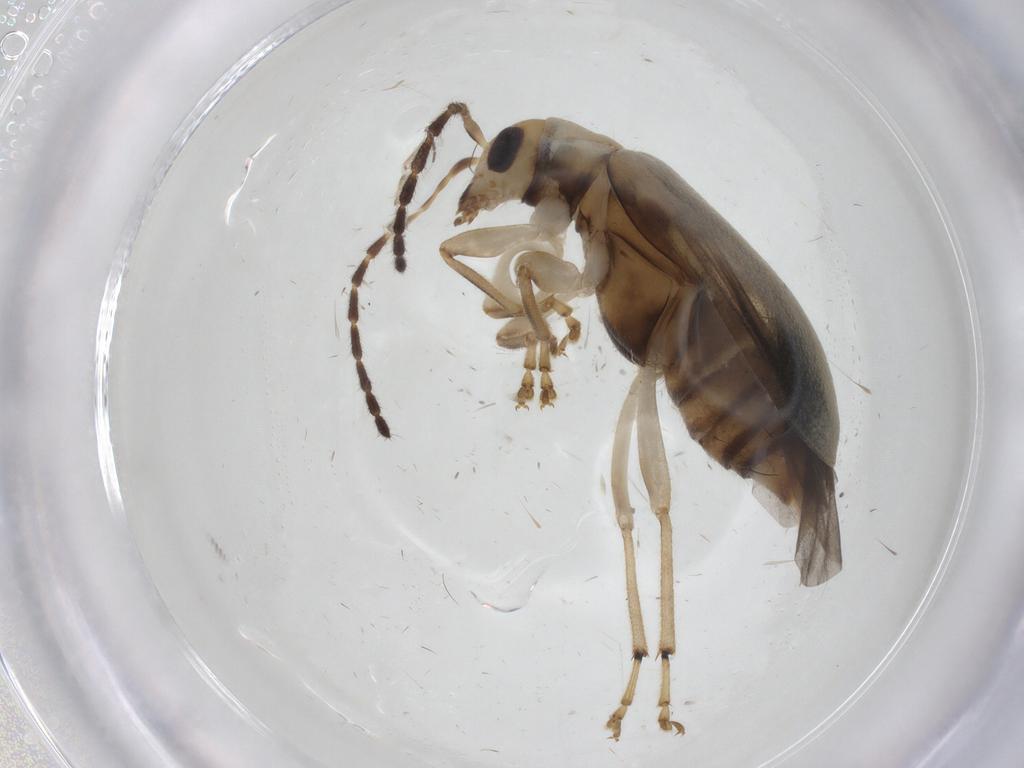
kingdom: Animalia
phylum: Arthropoda
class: Insecta
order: Coleoptera
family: Chrysomelidae
